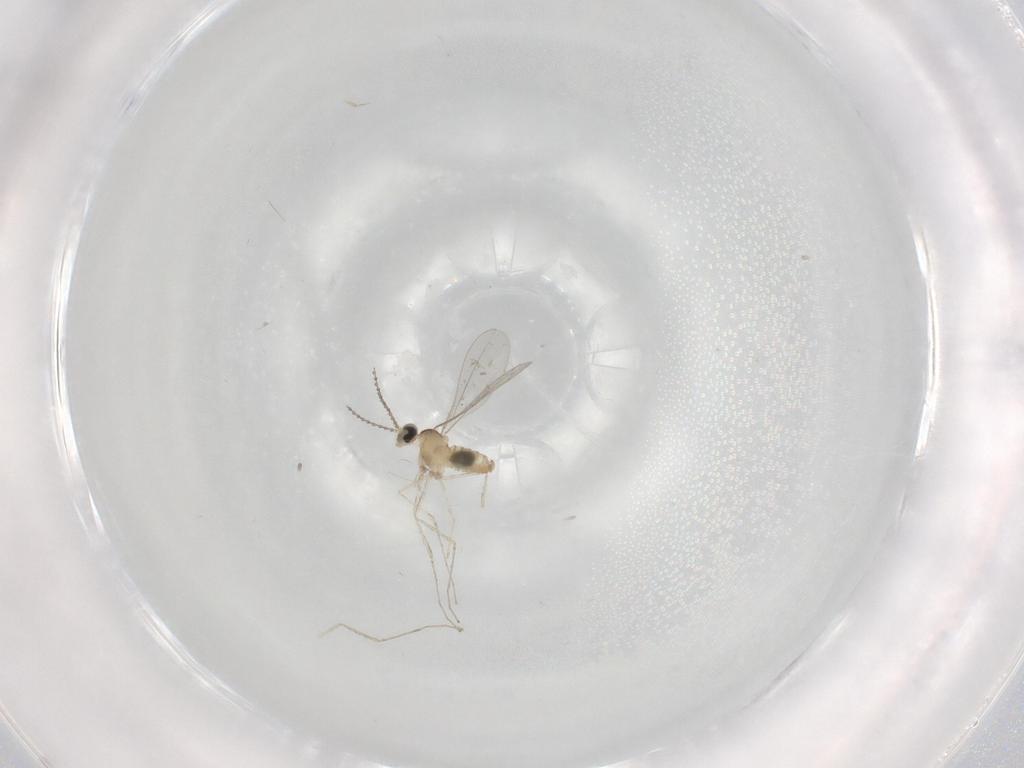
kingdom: Animalia
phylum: Arthropoda
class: Insecta
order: Diptera
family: Cecidomyiidae
